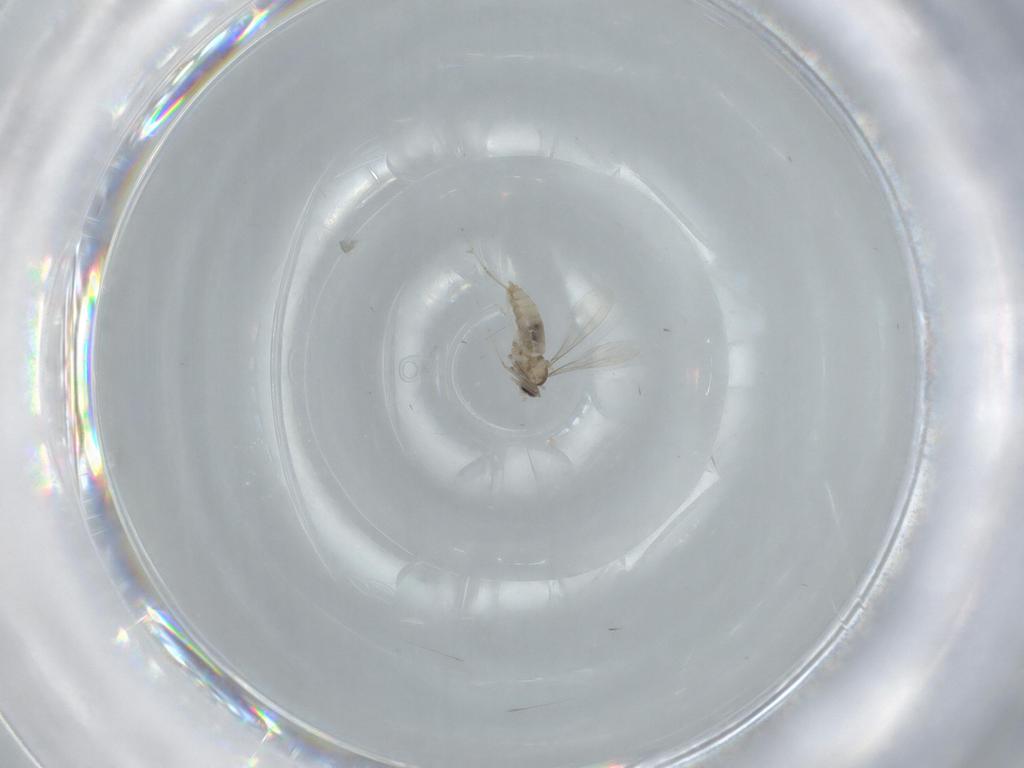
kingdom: Animalia
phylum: Arthropoda
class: Insecta
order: Diptera
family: Cecidomyiidae
